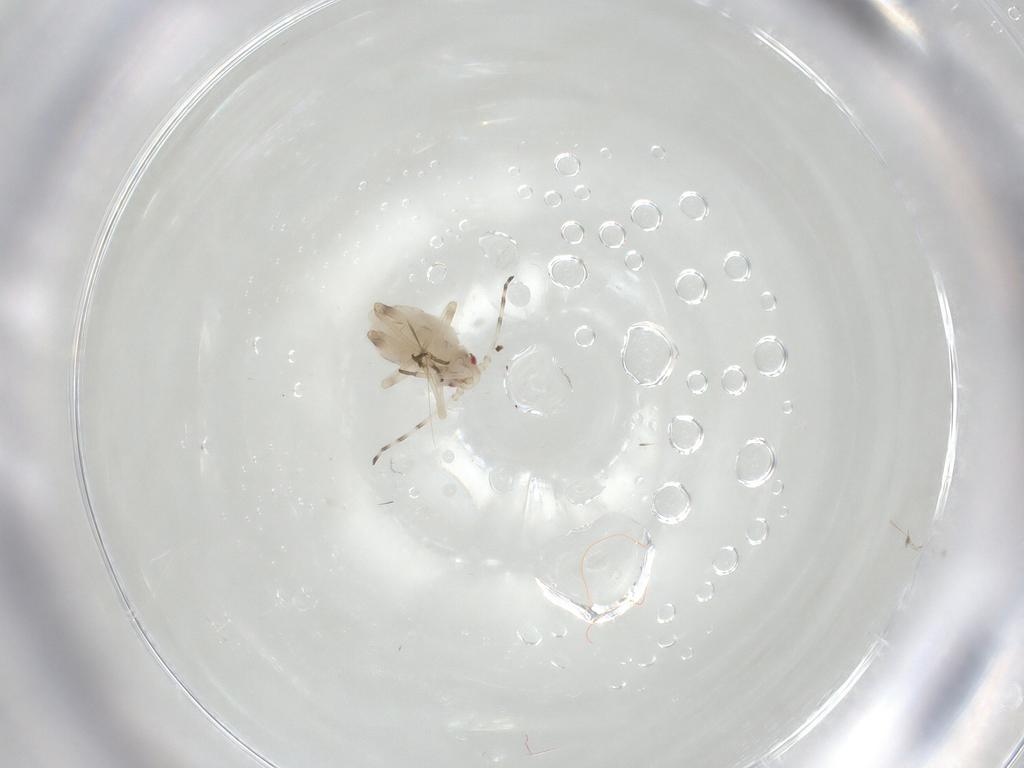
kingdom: Animalia
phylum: Arthropoda
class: Insecta
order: Hemiptera
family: Aphididae
